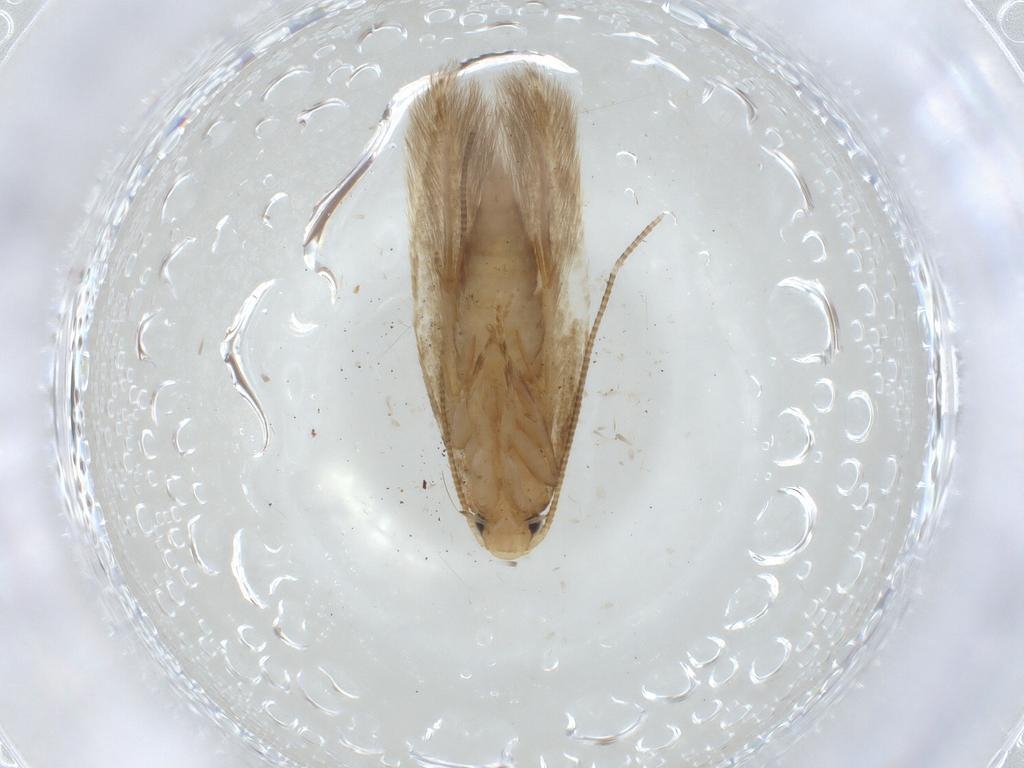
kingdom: Animalia
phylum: Arthropoda
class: Insecta
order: Lepidoptera
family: Tineidae
